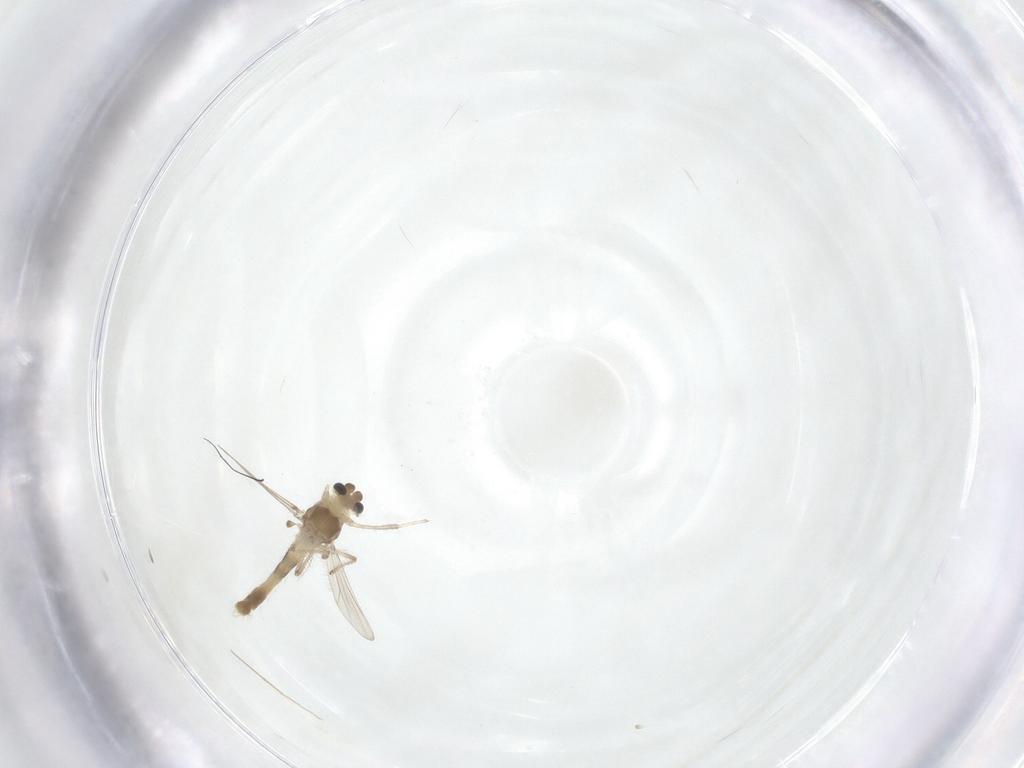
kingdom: Animalia
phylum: Arthropoda
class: Insecta
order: Diptera
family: Chironomidae
